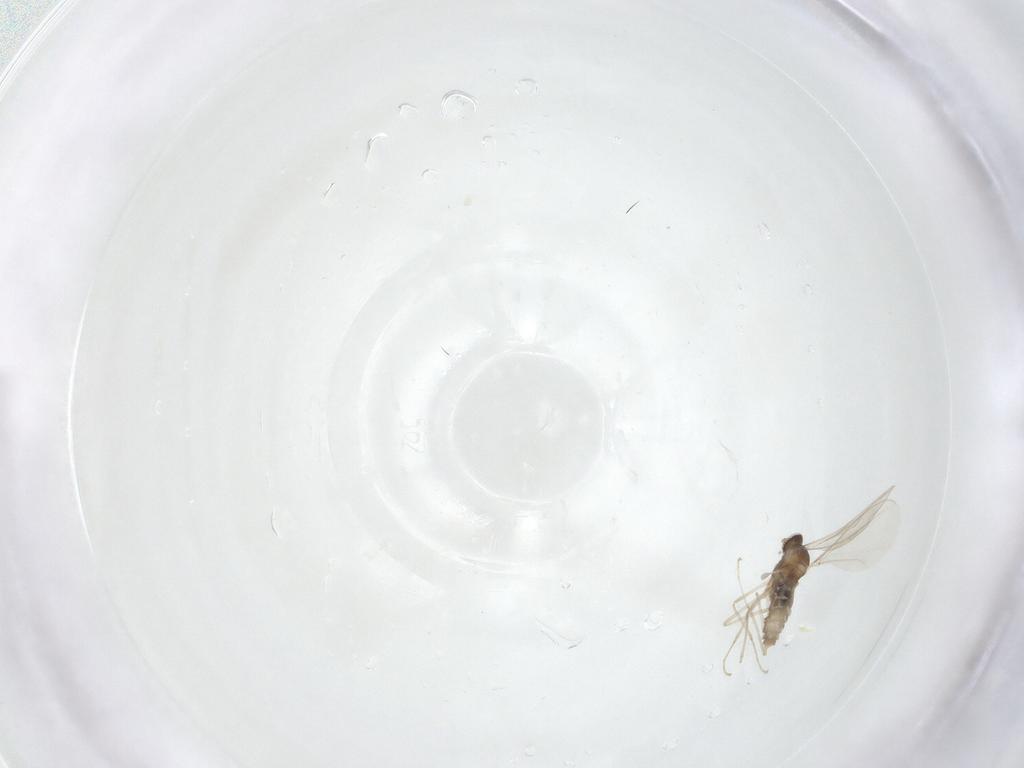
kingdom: Animalia
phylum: Arthropoda
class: Insecta
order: Diptera
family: Cecidomyiidae
